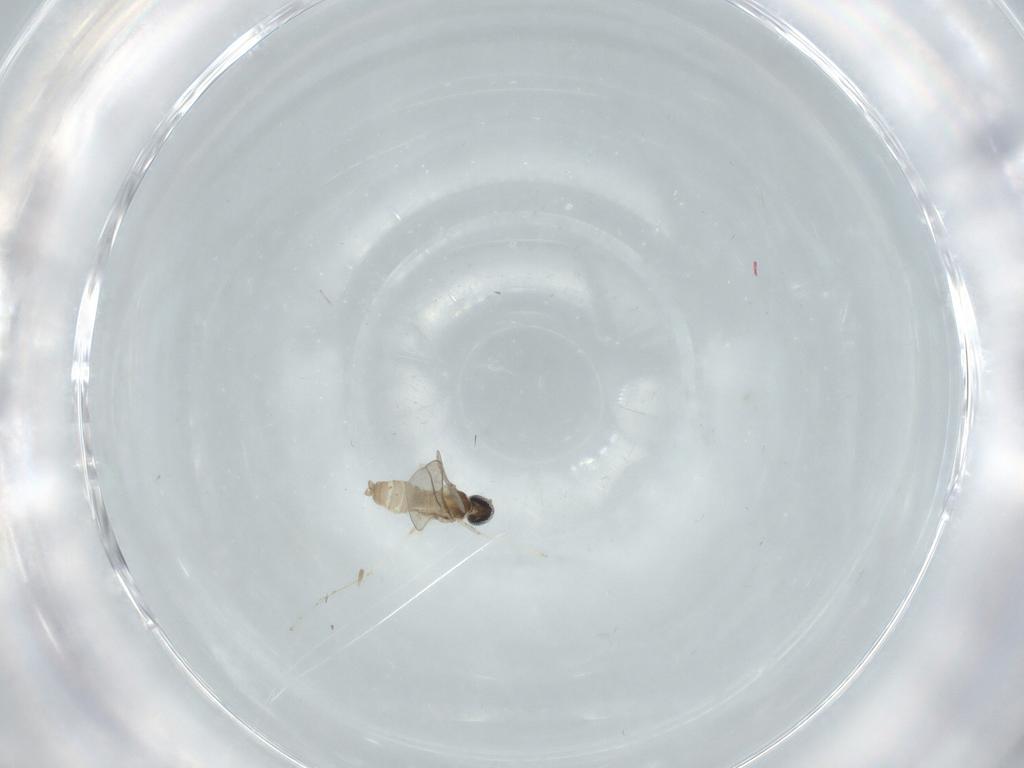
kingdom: Animalia
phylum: Arthropoda
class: Insecta
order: Diptera
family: Cecidomyiidae
